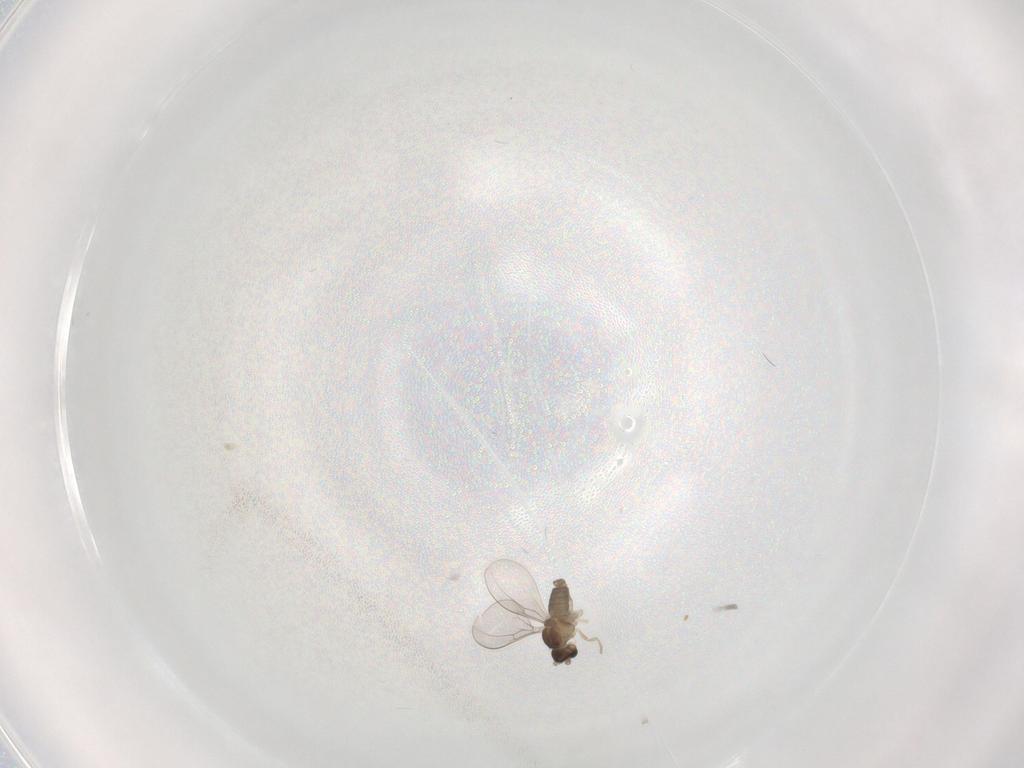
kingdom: Animalia
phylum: Arthropoda
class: Insecta
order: Diptera
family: Cecidomyiidae
